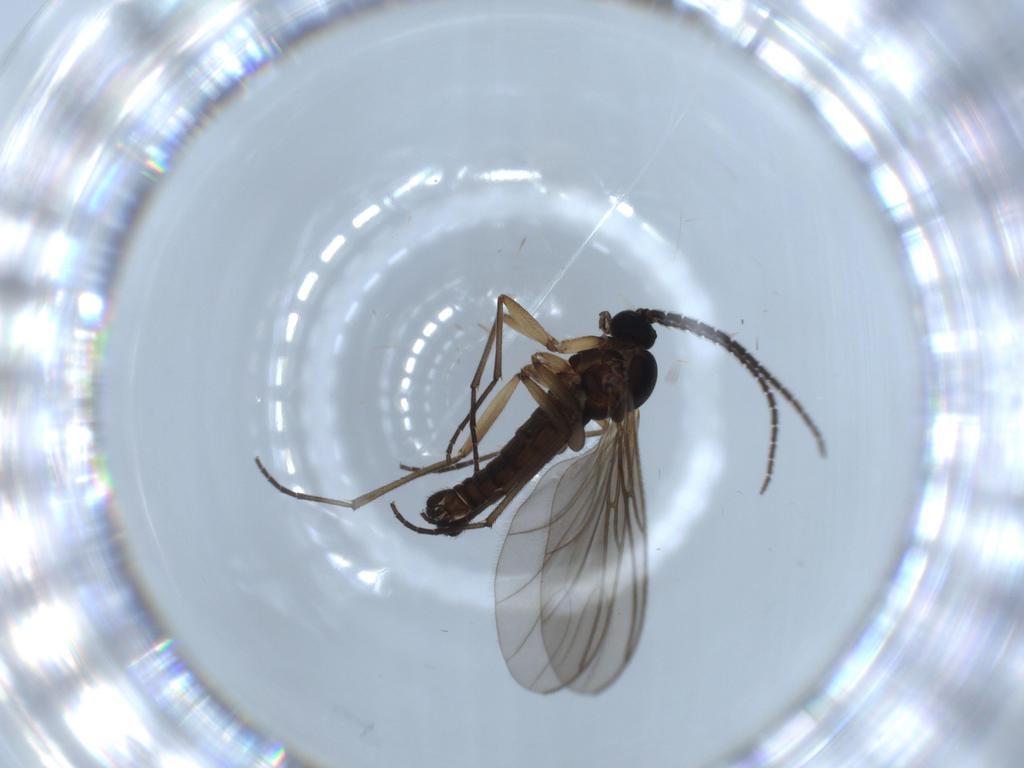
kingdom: Animalia
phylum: Arthropoda
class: Insecta
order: Diptera
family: Sciaridae
